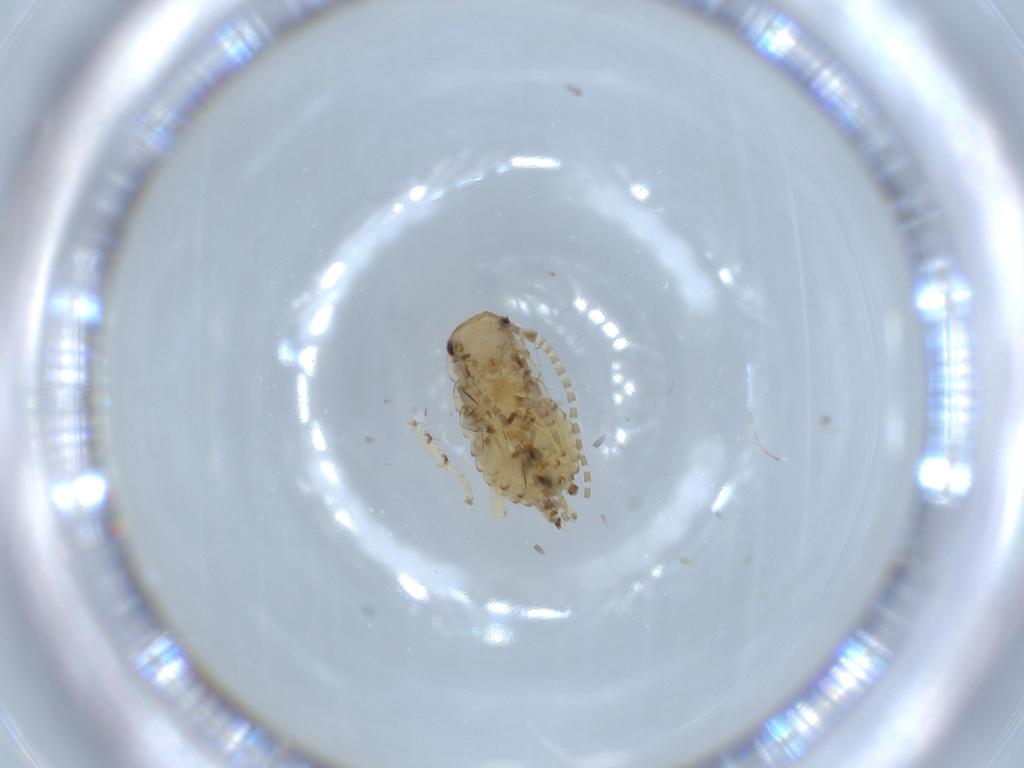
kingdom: Animalia
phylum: Arthropoda
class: Insecta
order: Blattodea
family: Ectobiidae
